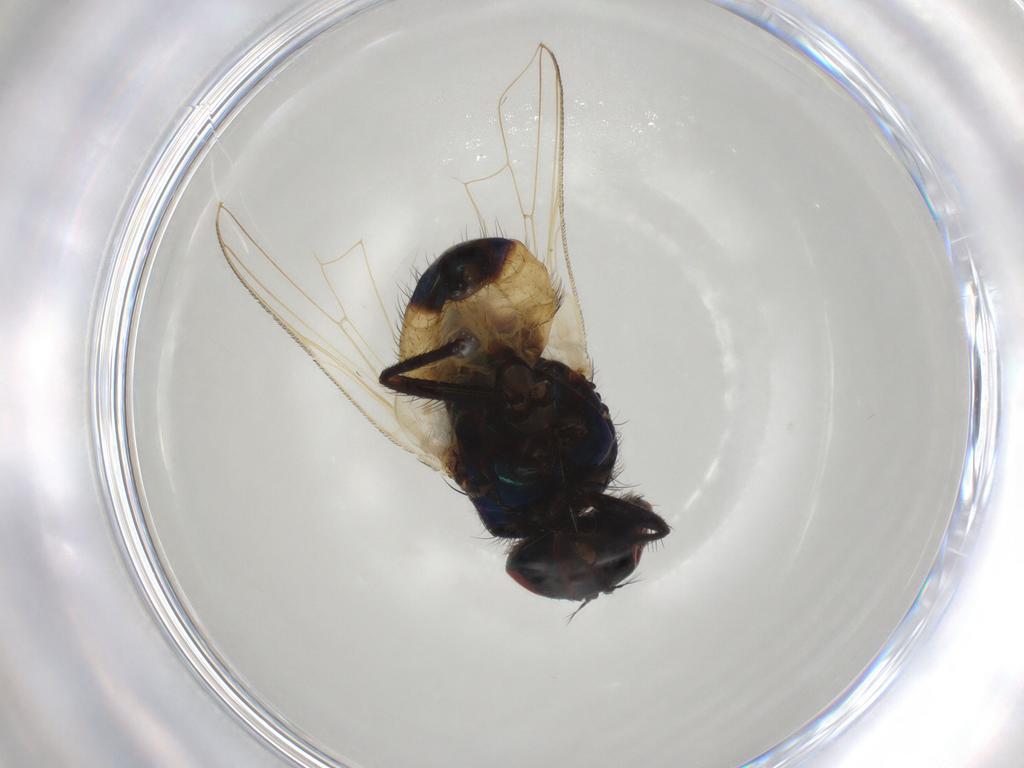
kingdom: Animalia
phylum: Arthropoda
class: Insecta
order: Diptera
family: Muscidae
